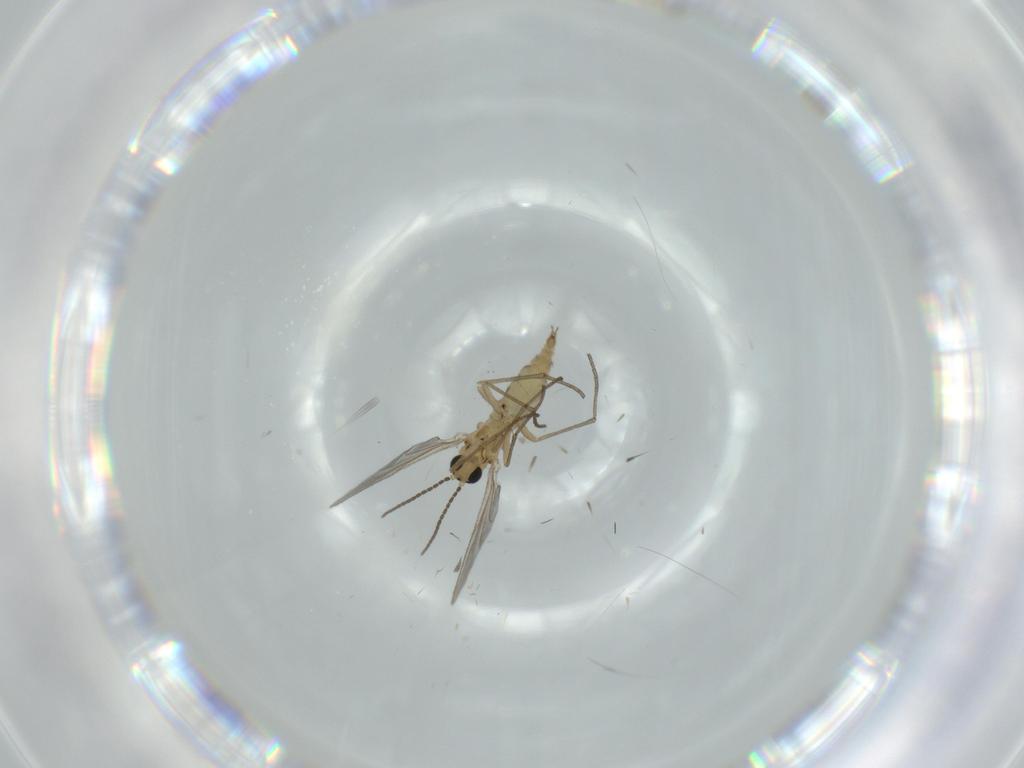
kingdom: Animalia
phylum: Arthropoda
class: Insecta
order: Diptera
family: Sciaridae
